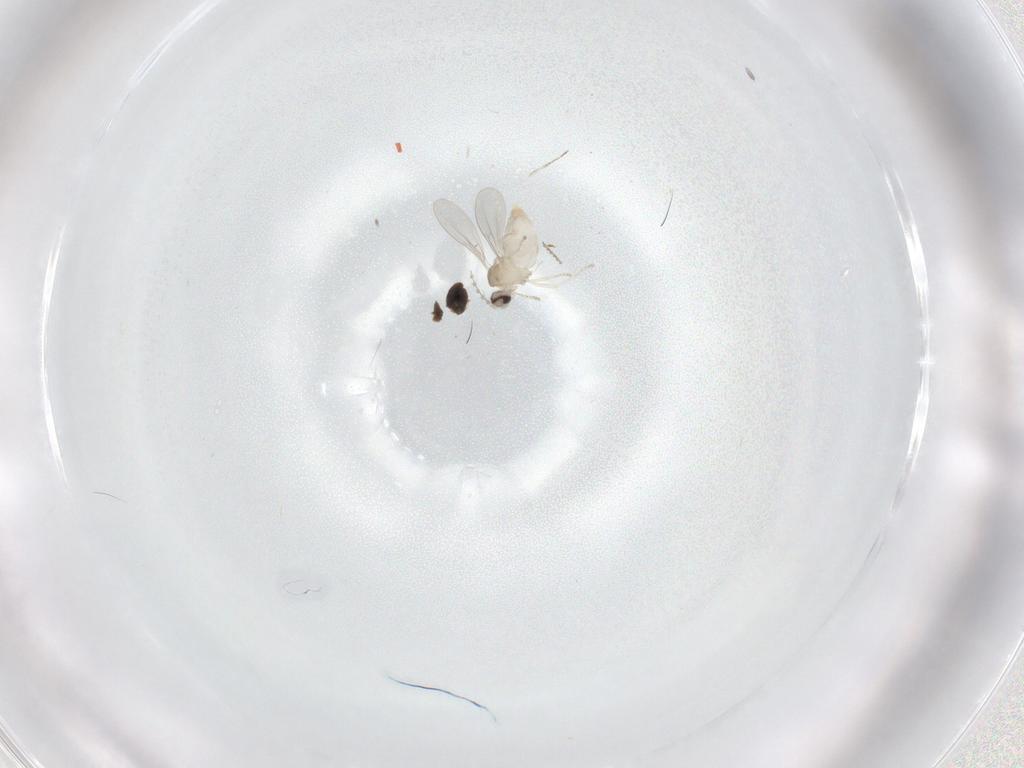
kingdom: Animalia
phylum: Arthropoda
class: Insecta
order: Diptera
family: Cecidomyiidae
